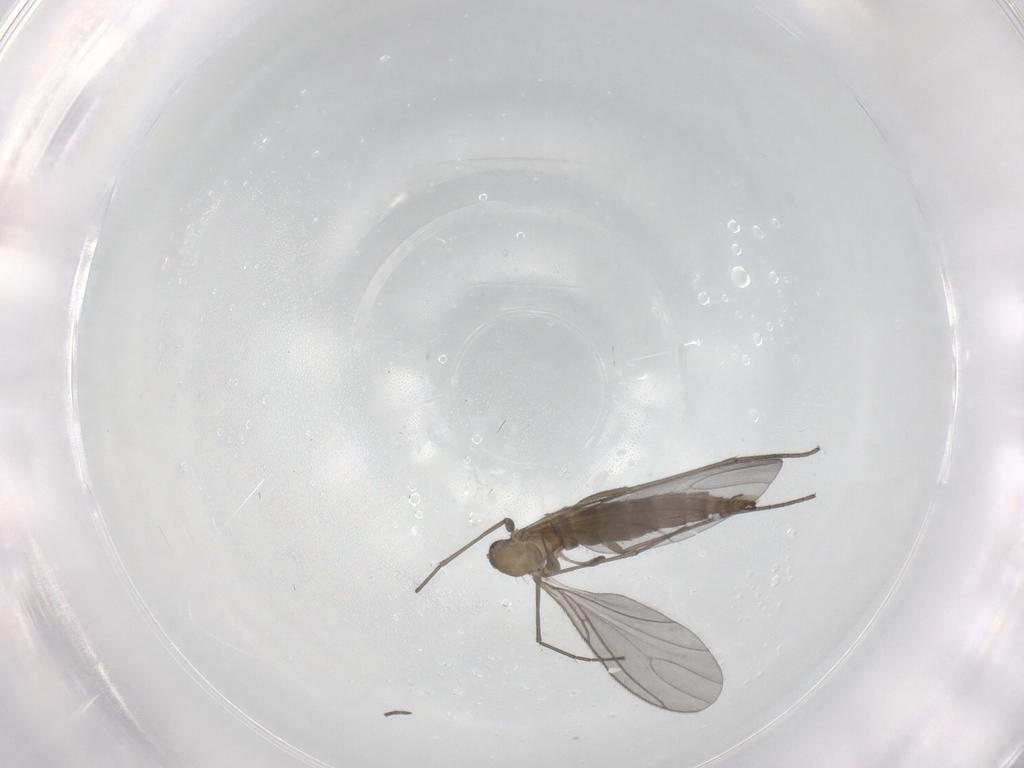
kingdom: Animalia
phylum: Arthropoda
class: Insecta
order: Diptera
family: Sciaridae
